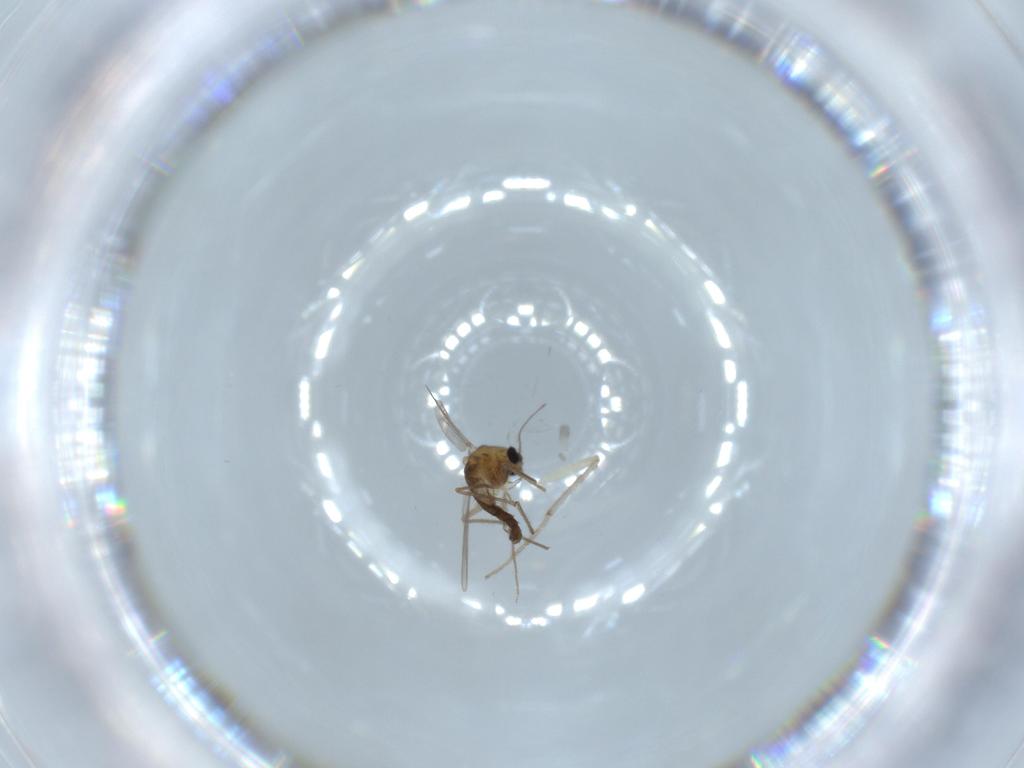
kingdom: Animalia
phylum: Arthropoda
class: Insecta
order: Diptera
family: Chironomidae
